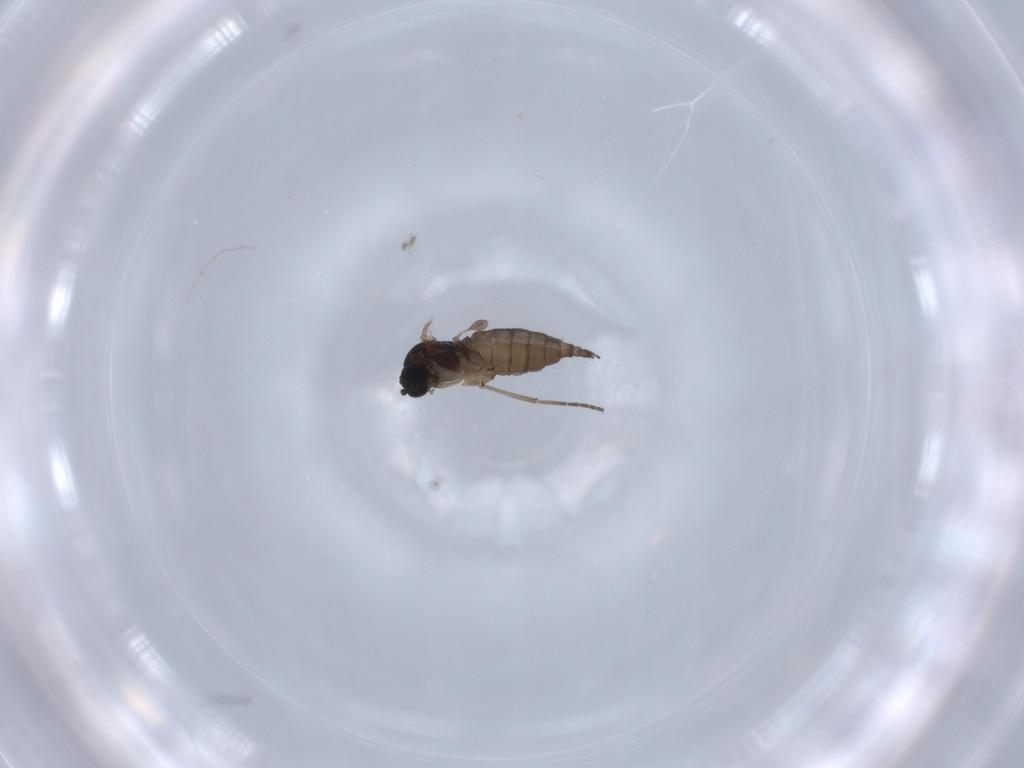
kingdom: Animalia
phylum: Arthropoda
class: Insecta
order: Diptera
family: Sciaridae
